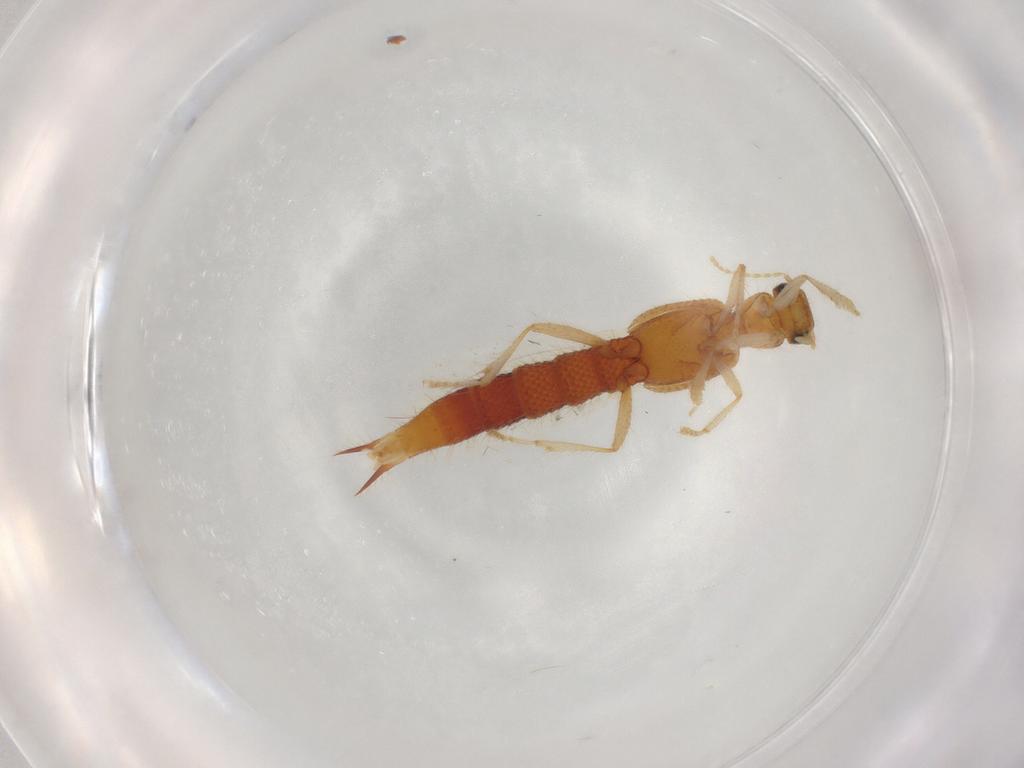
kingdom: Animalia
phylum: Arthropoda
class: Insecta
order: Coleoptera
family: Staphylinidae
